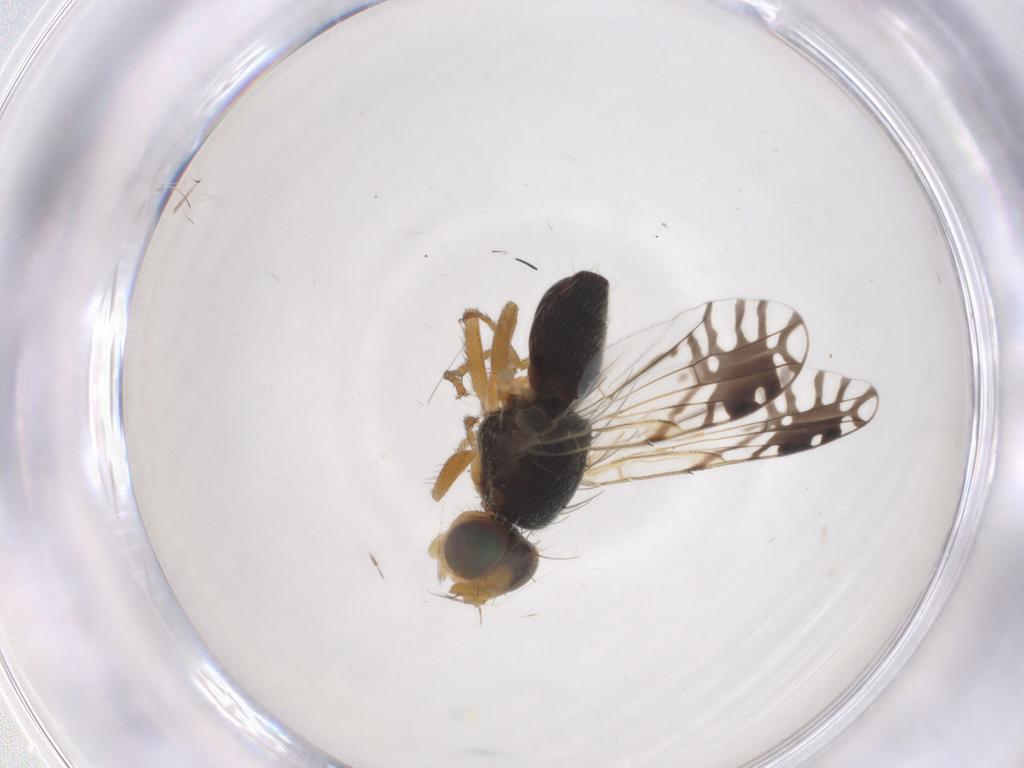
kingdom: Animalia
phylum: Arthropoda
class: Insecta
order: Diptera
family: Tephritidae
